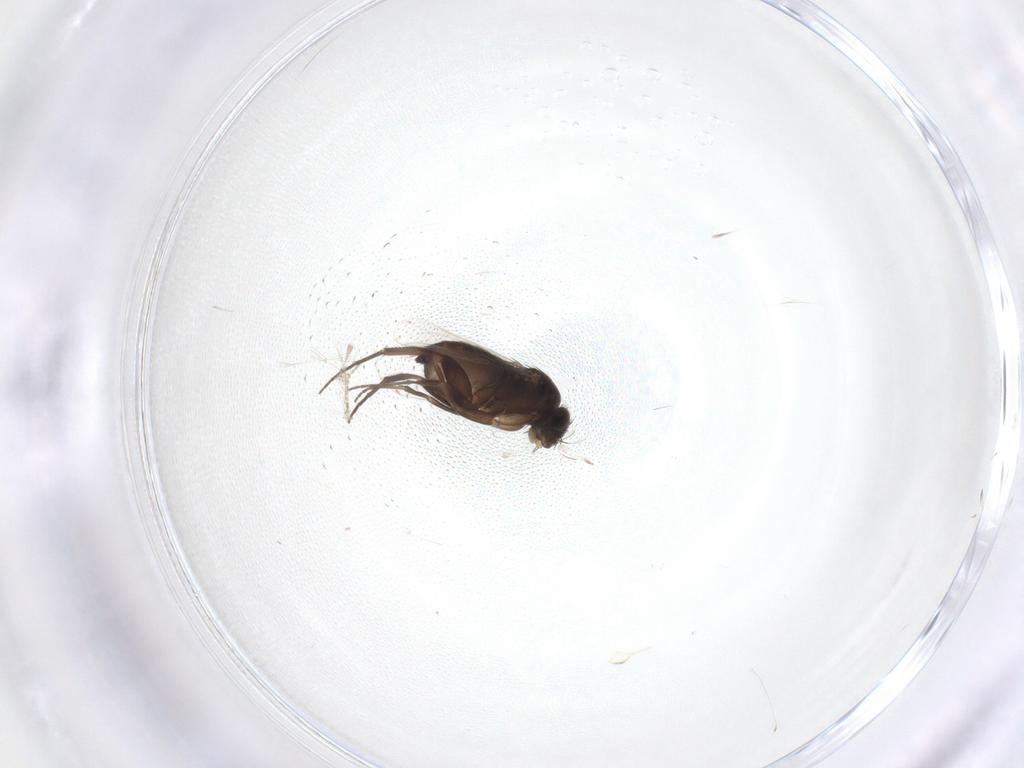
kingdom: Animalia
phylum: Arthropoda
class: Insecta
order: Diptera
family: Phoridae
